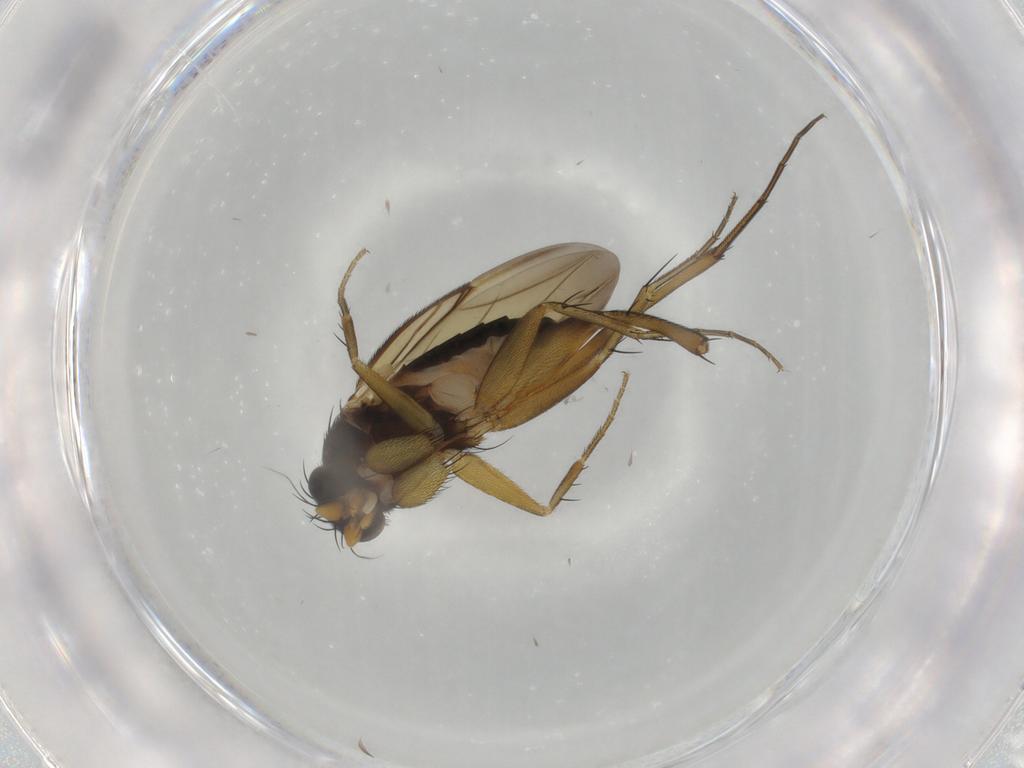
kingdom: Animalia
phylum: Arthropoda
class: Insecta
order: Diptera
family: Phoridae
